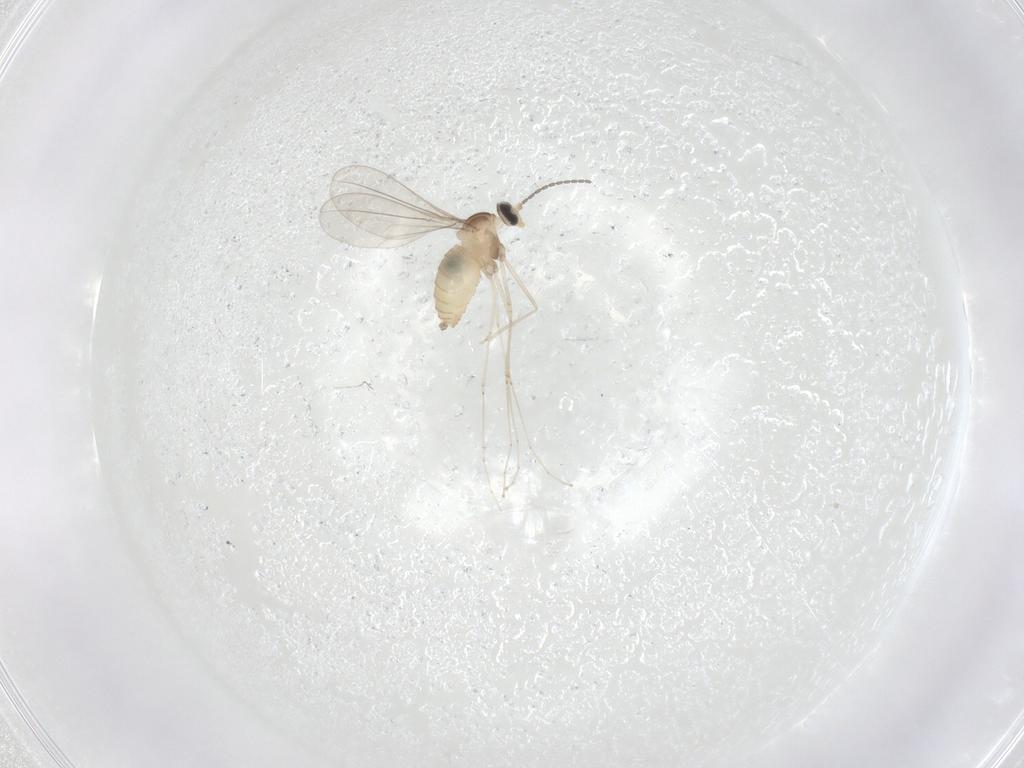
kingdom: Animalia
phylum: Arthropoda
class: Insecta
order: Diptera
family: Cecidomyiidae
